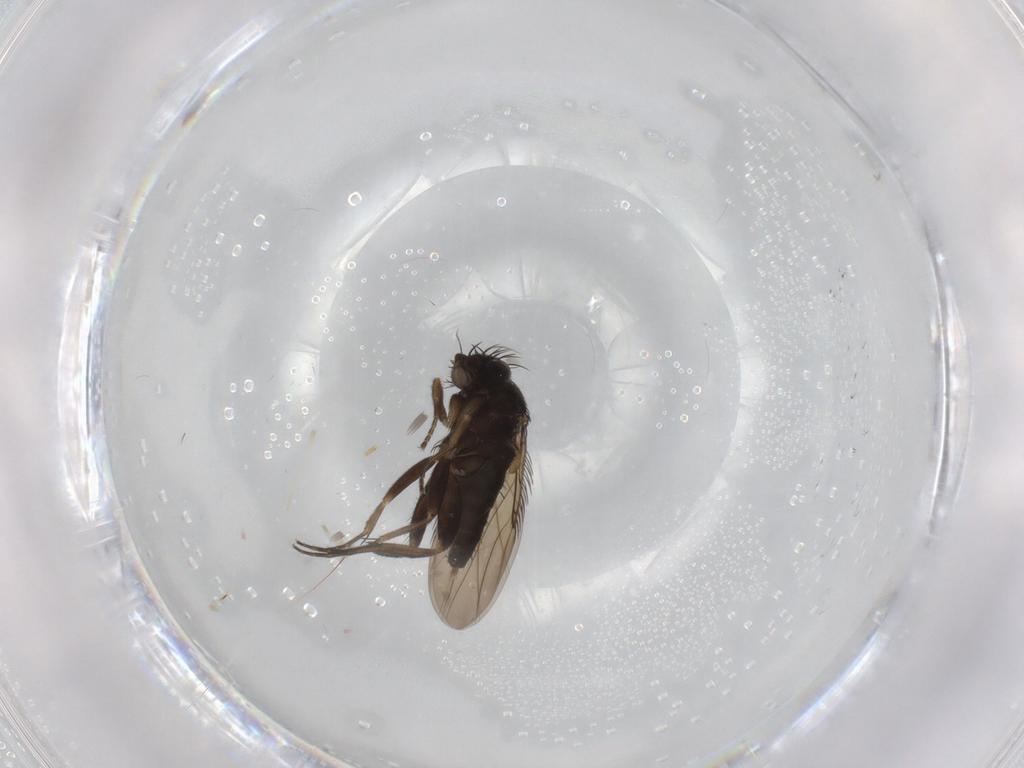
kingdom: Animalia
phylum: Arthropoda
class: Insecta
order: Diptera
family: Phoridae
